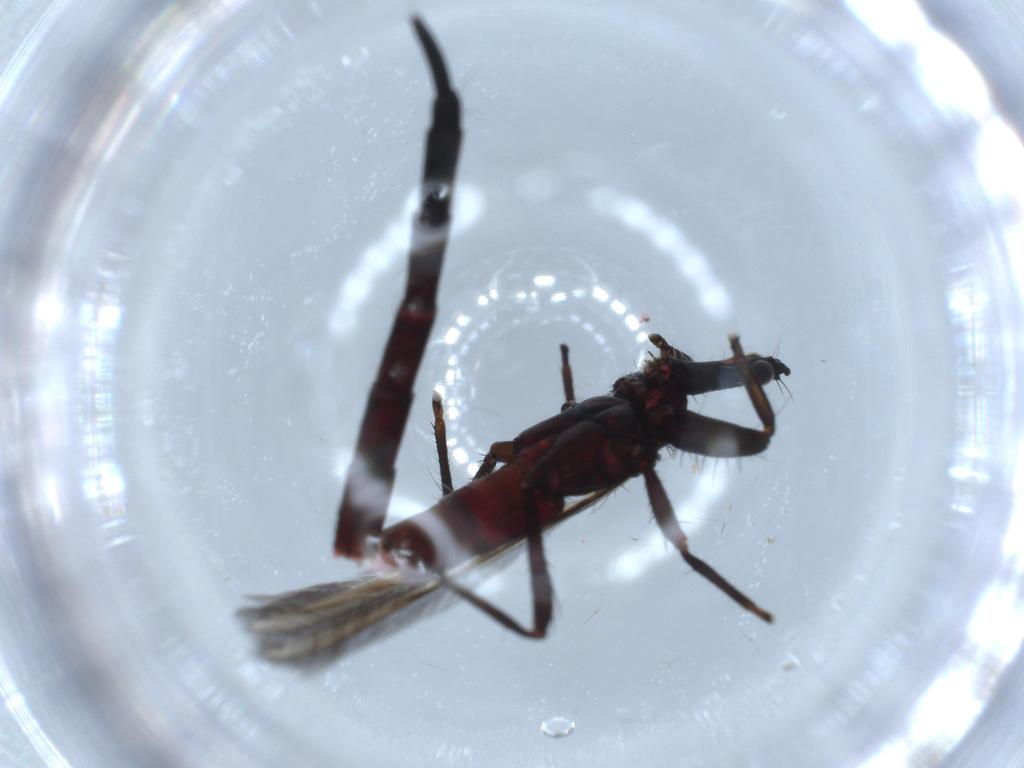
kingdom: Animalia
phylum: Arthropoda
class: Insecta
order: Thysanoptera
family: Phlaeothripidae
